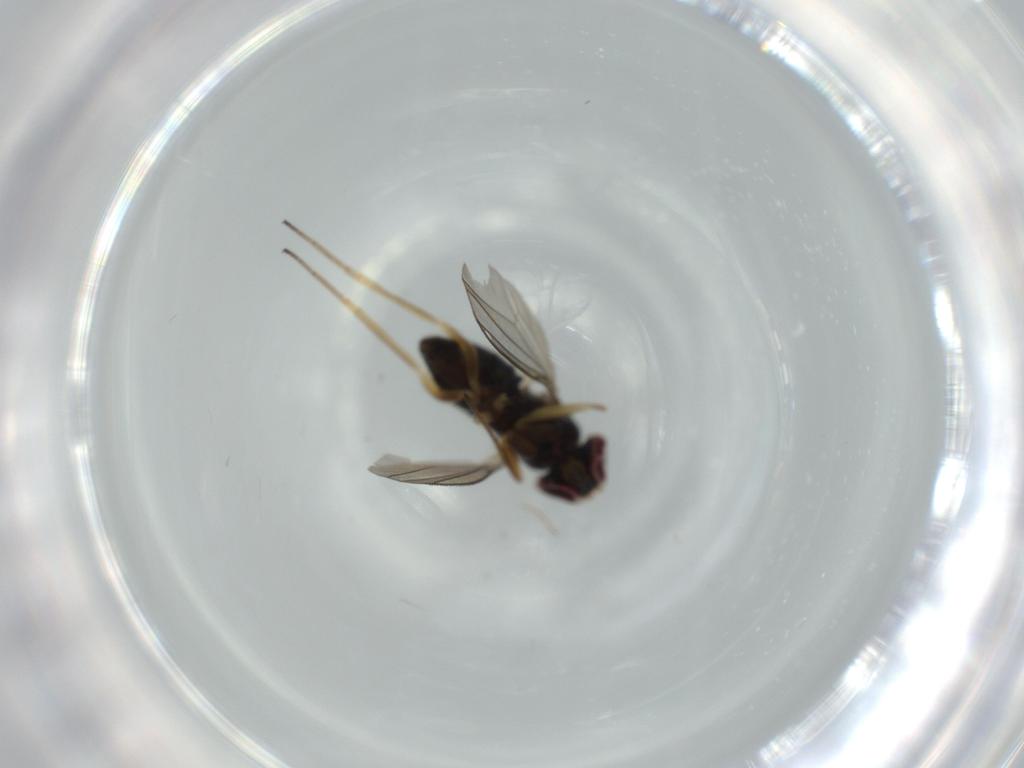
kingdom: Animalia
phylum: Arthropoda
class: Insecta
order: Diptera
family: Dolichopodidae
